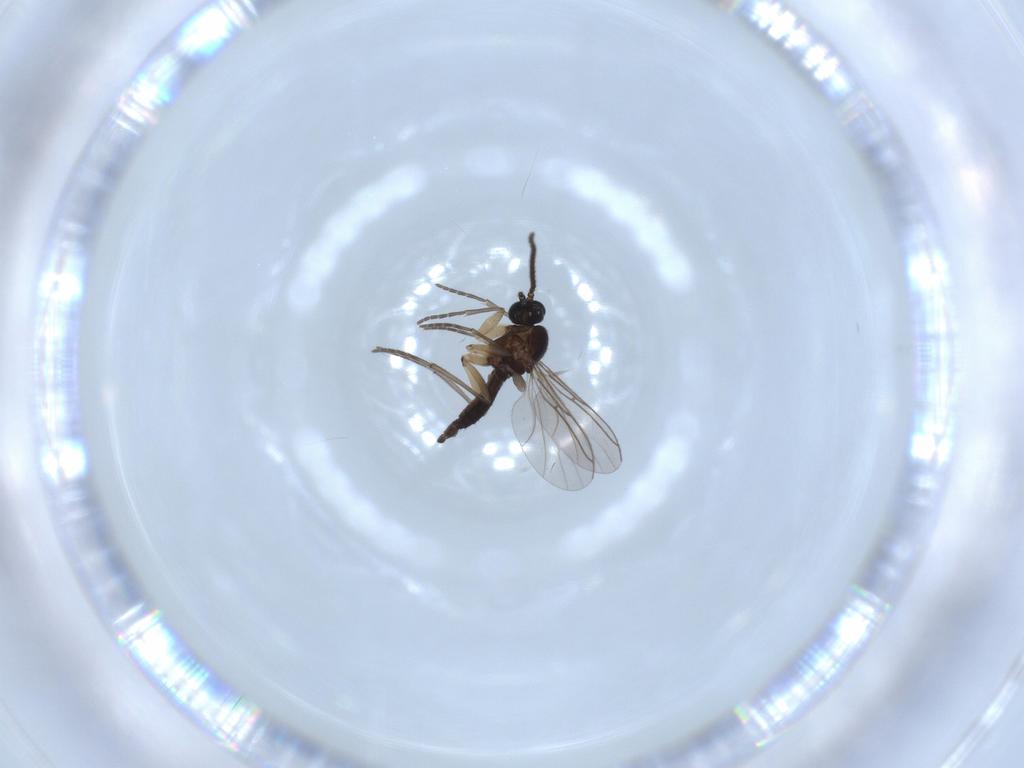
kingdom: Animalia
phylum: Arthropoda
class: Insecta
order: Diptera
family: Sciaridae
